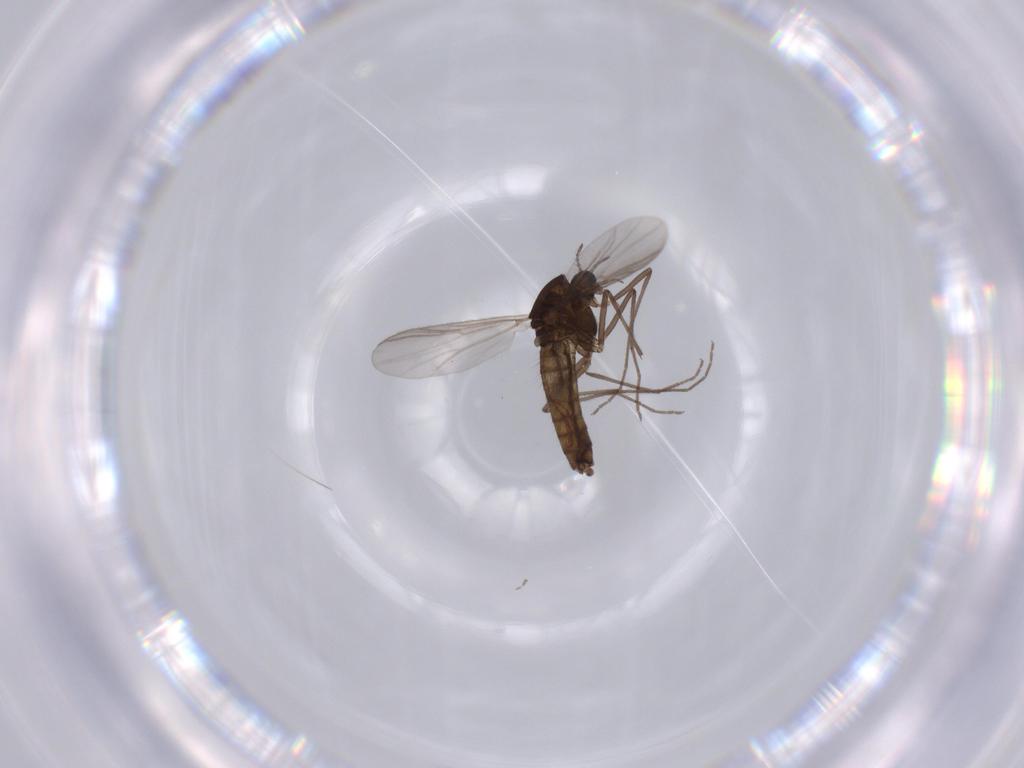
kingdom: Animalia
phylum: Arthropoda
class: Insecta
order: Diptera
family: Chironomidae
